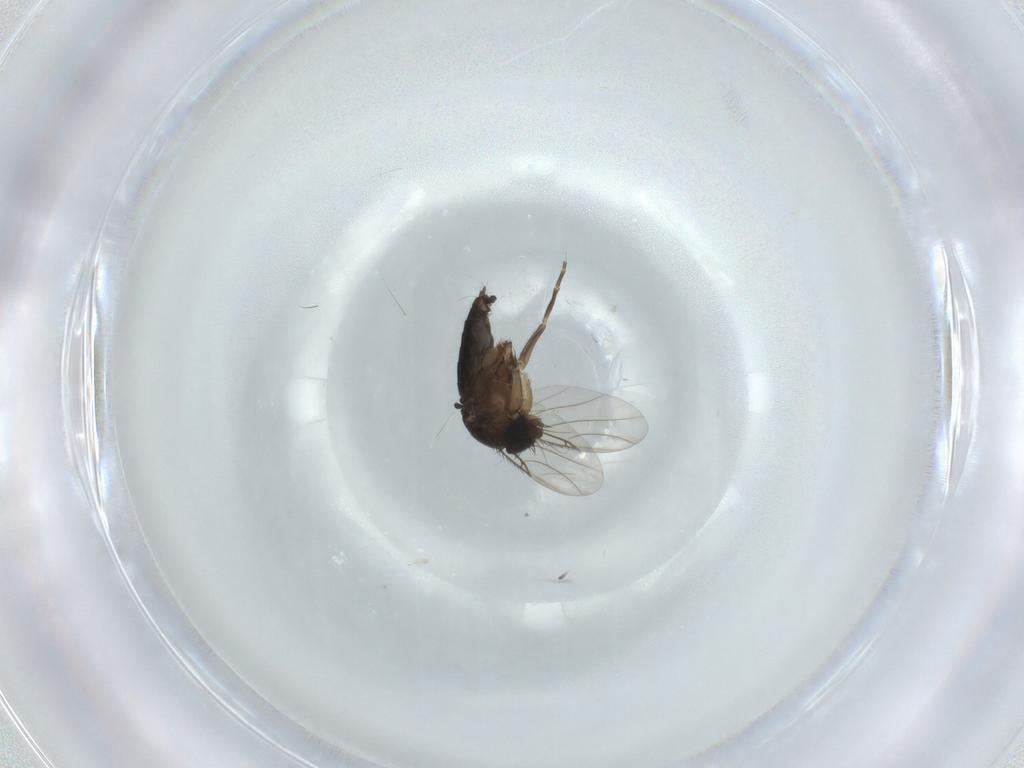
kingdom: Animalia
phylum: Arthropoda
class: Insecta
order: Diptera
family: Phoridae
